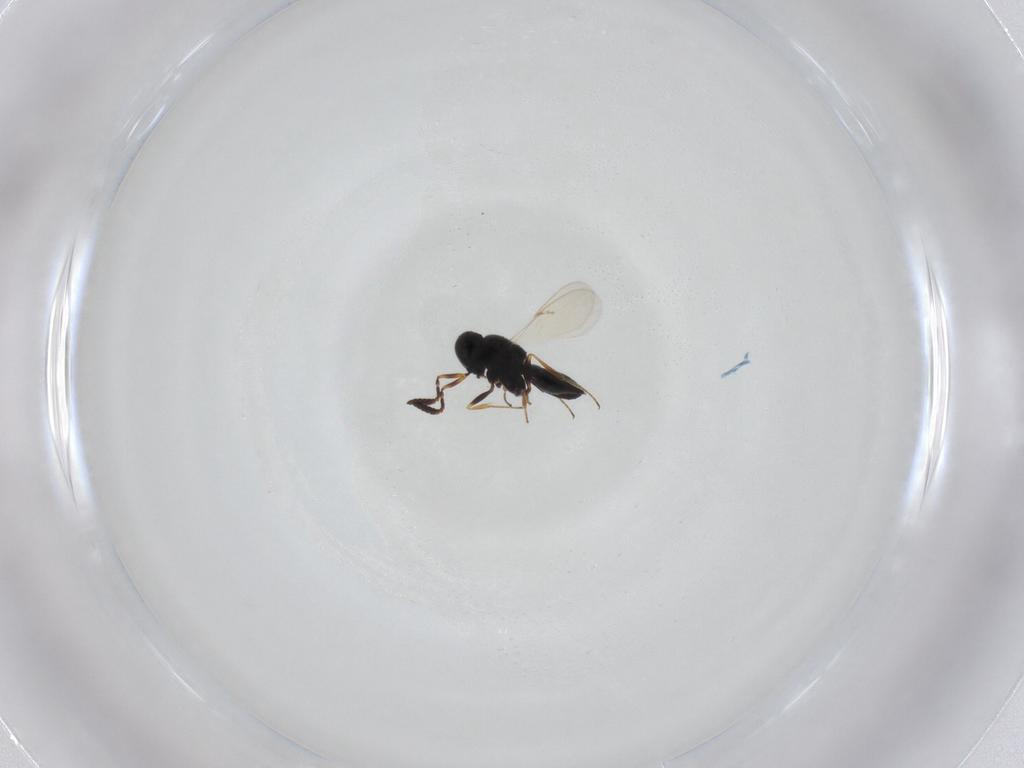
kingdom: Animalia
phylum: Arthropoda
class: Insecta
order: Hymenoptera
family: Scelionidae
